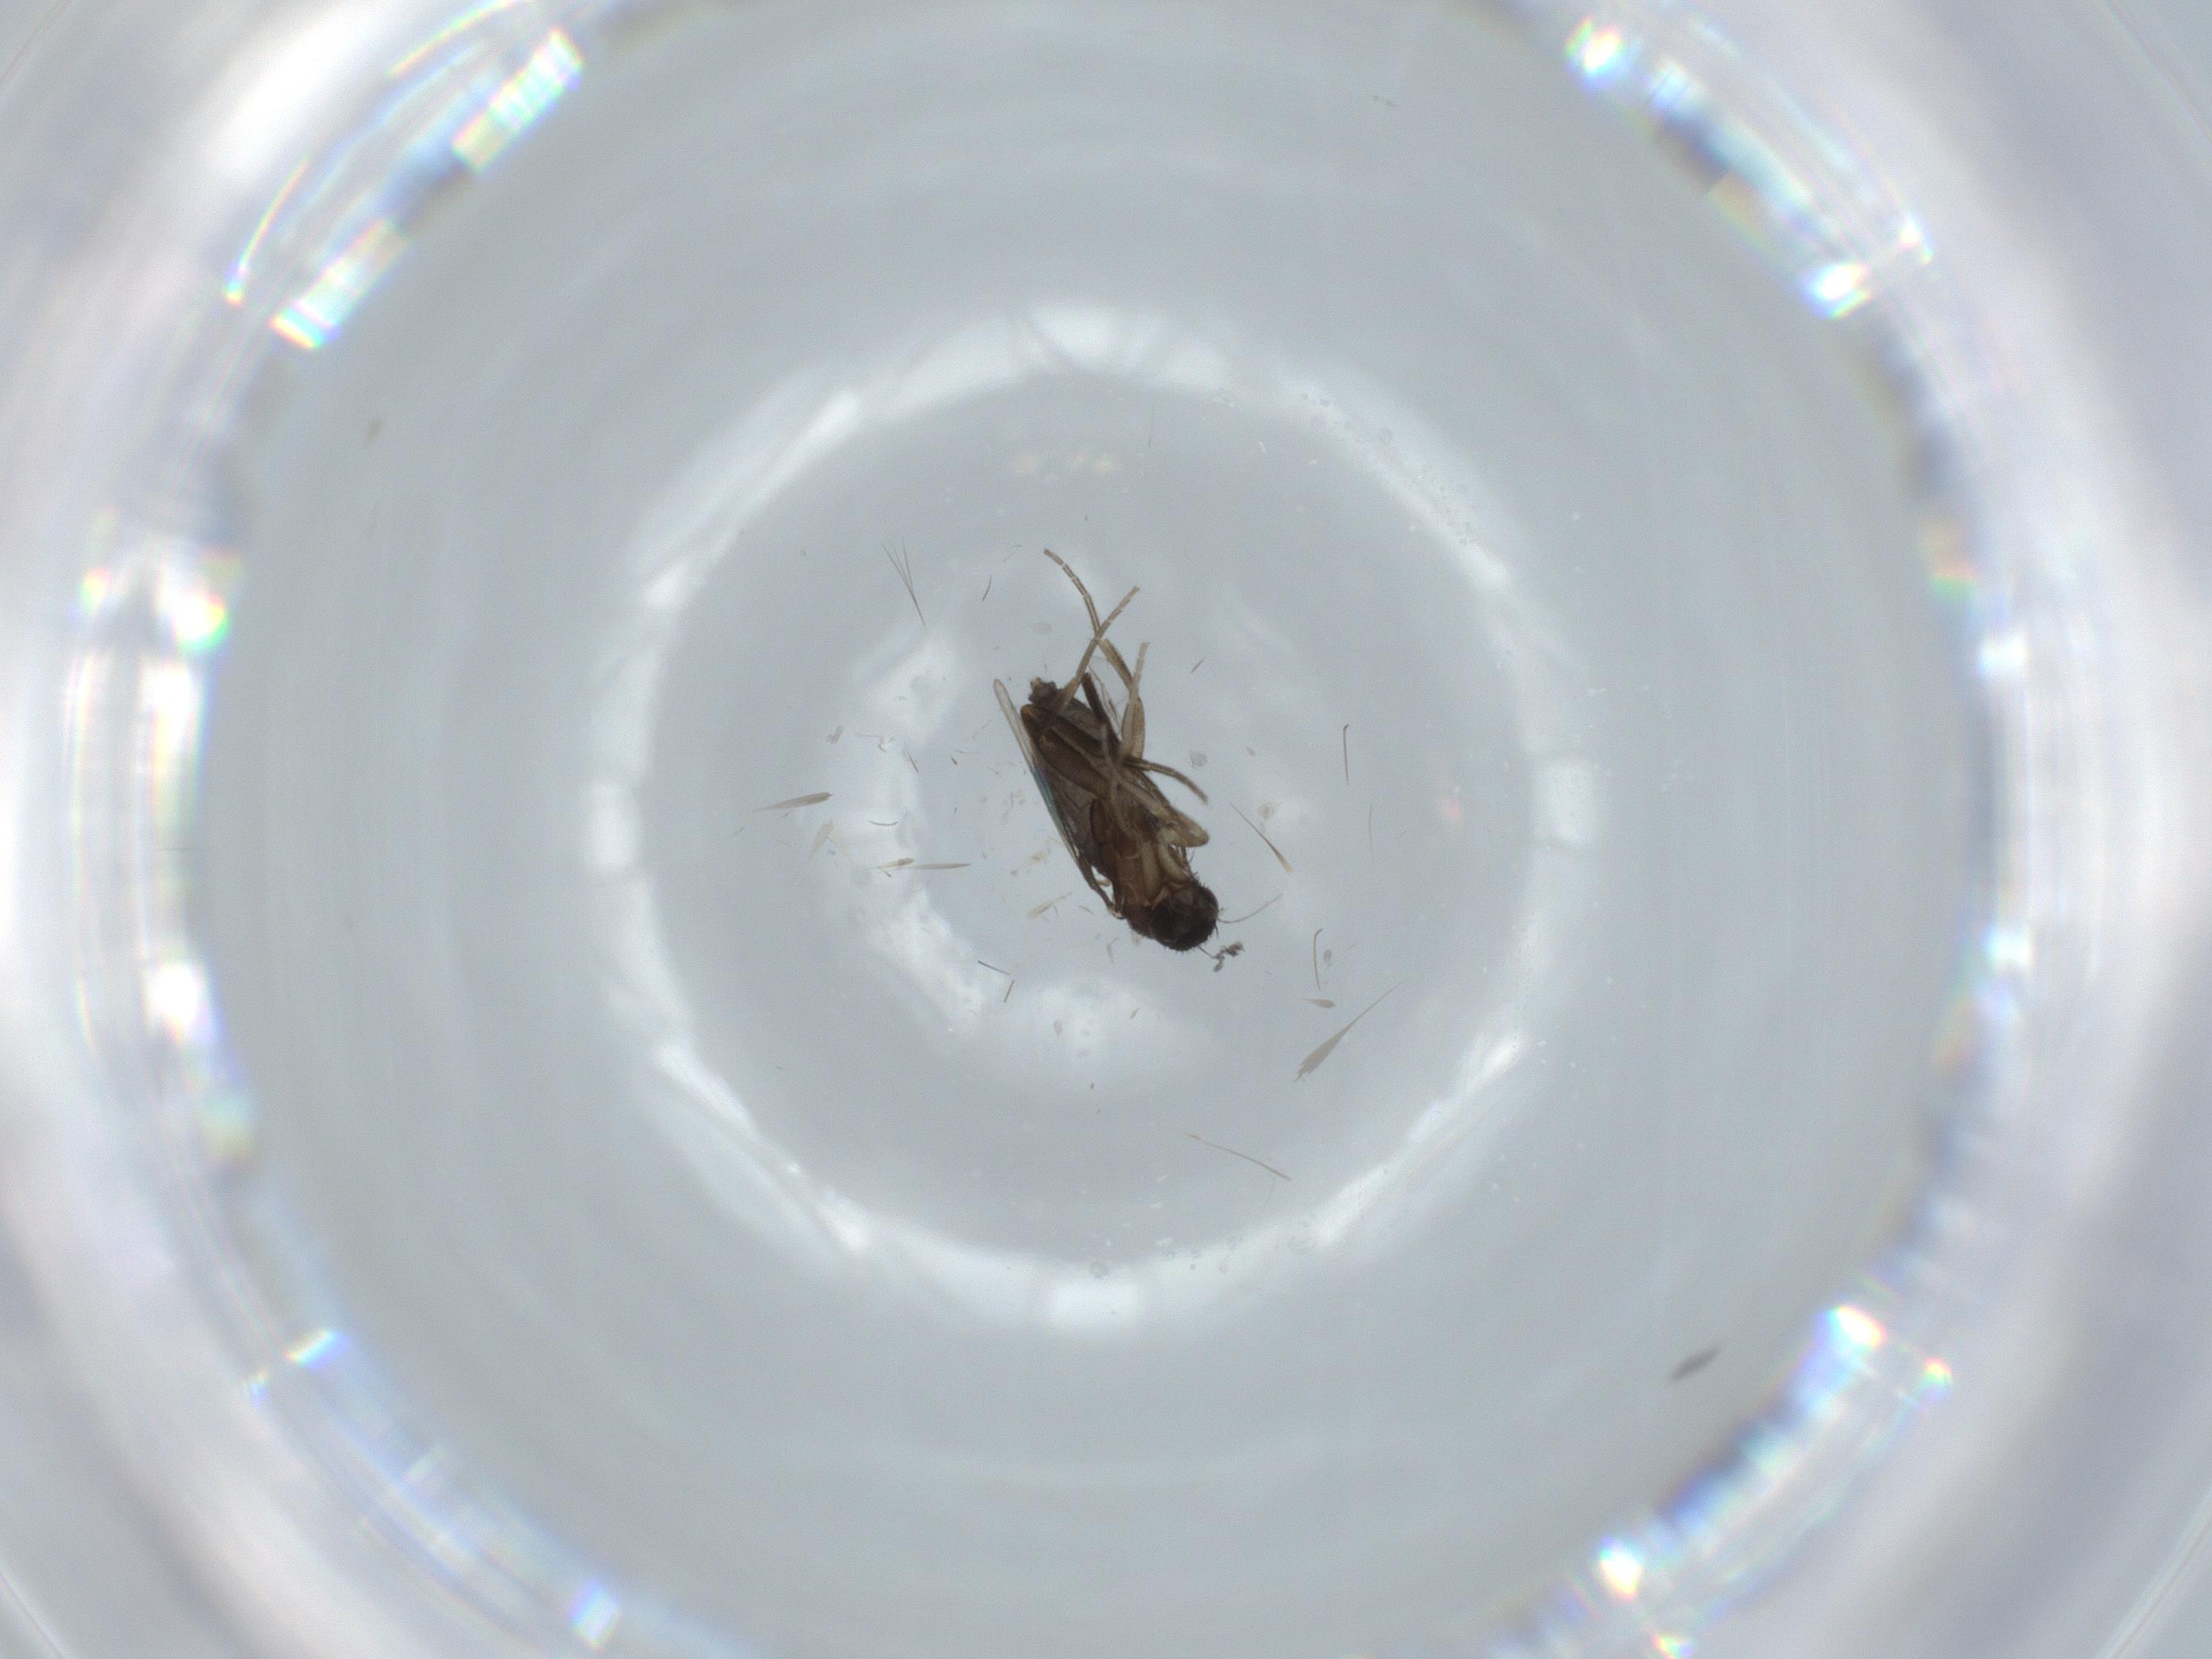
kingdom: Animalia
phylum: Arthropoda
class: Insecta
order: Diptera
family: Phoridae
